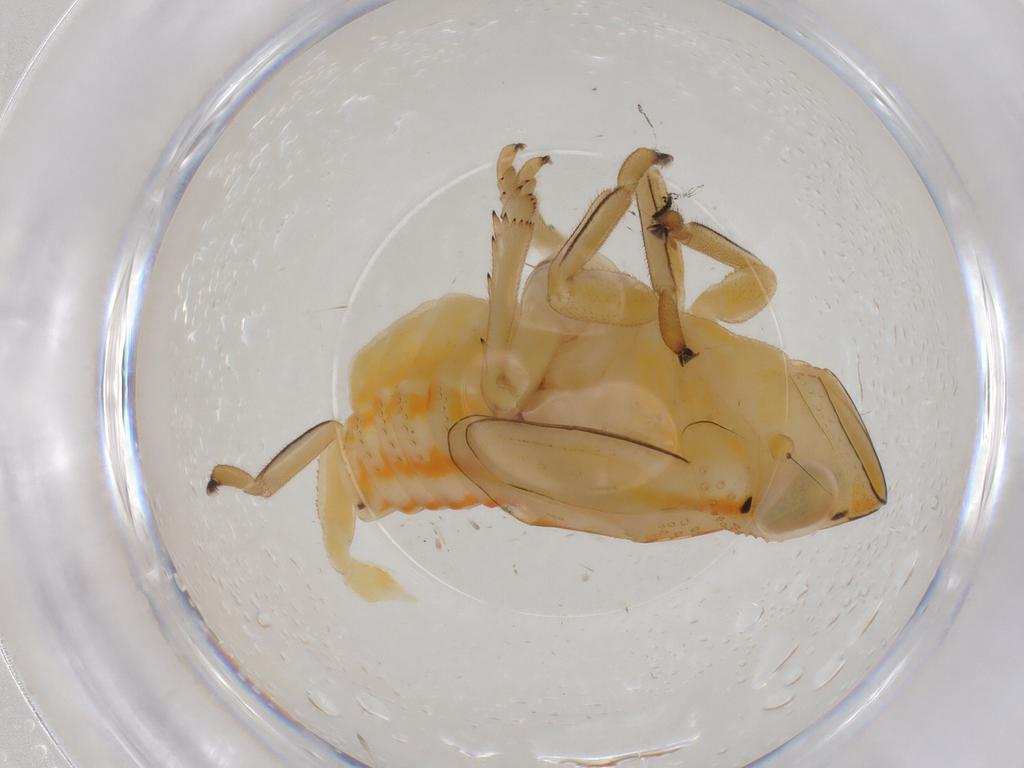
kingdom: Animalia
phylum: Arthropoda
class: Insecta
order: Hemiptera
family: Issidae
